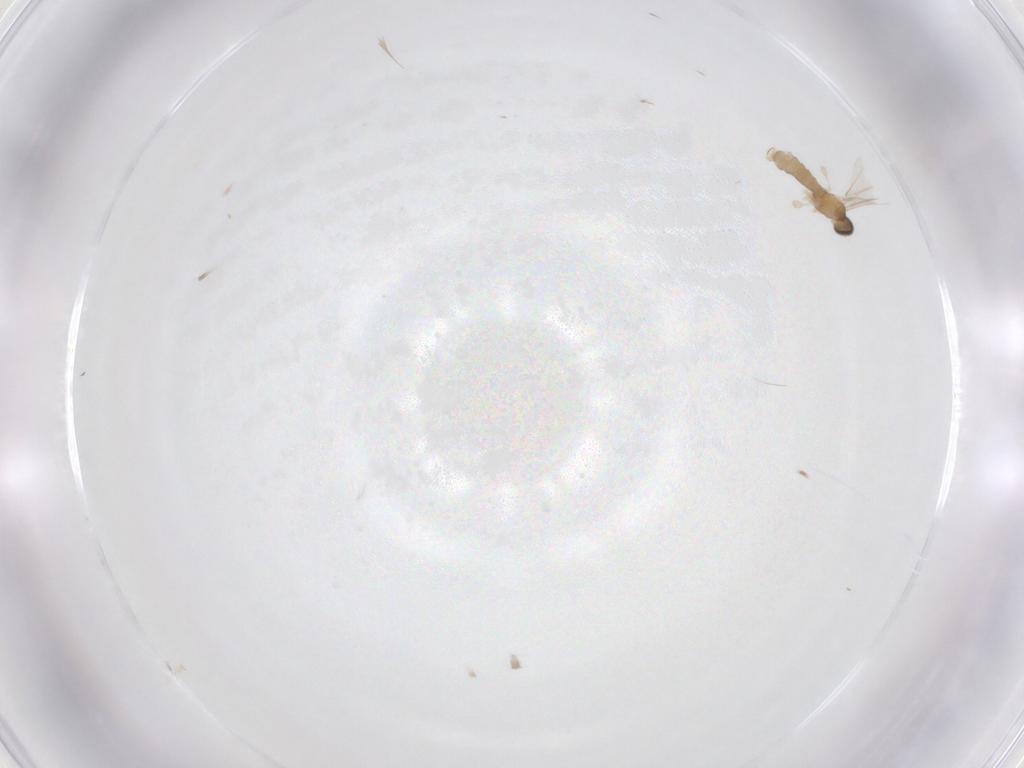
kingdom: Animalia
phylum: Arthropoda
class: Insecta
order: Diptera
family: Cecidomyiidae
